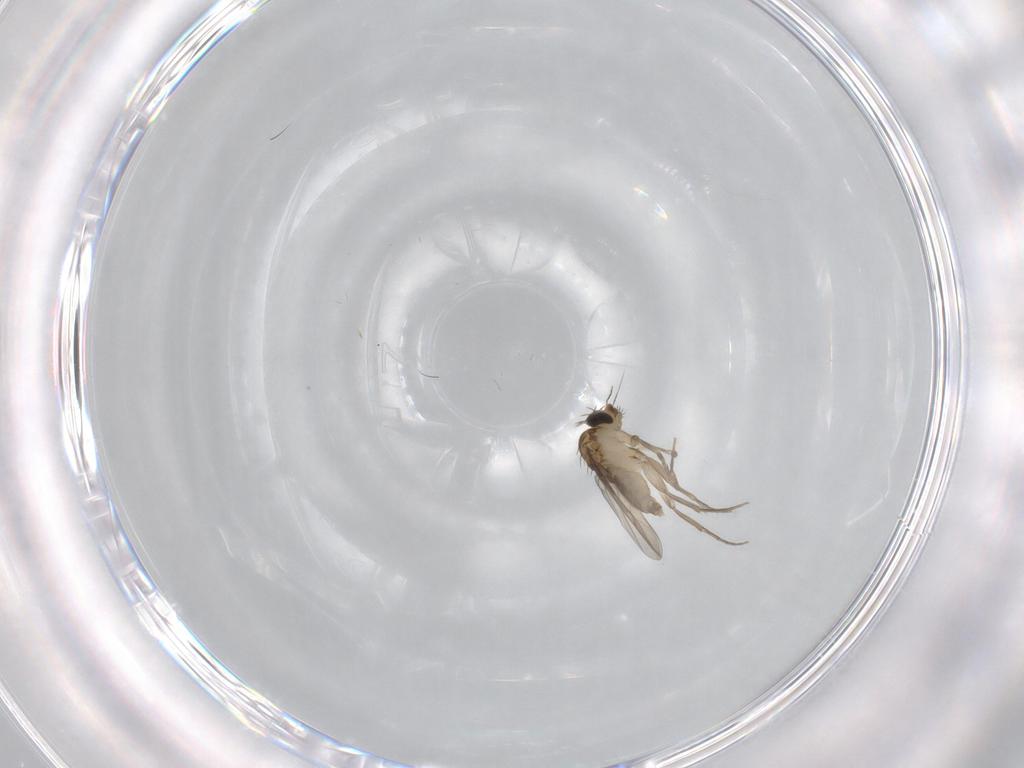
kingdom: Animalia
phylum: Arthropoda
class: Insecta
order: Diptera
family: Phoridae
